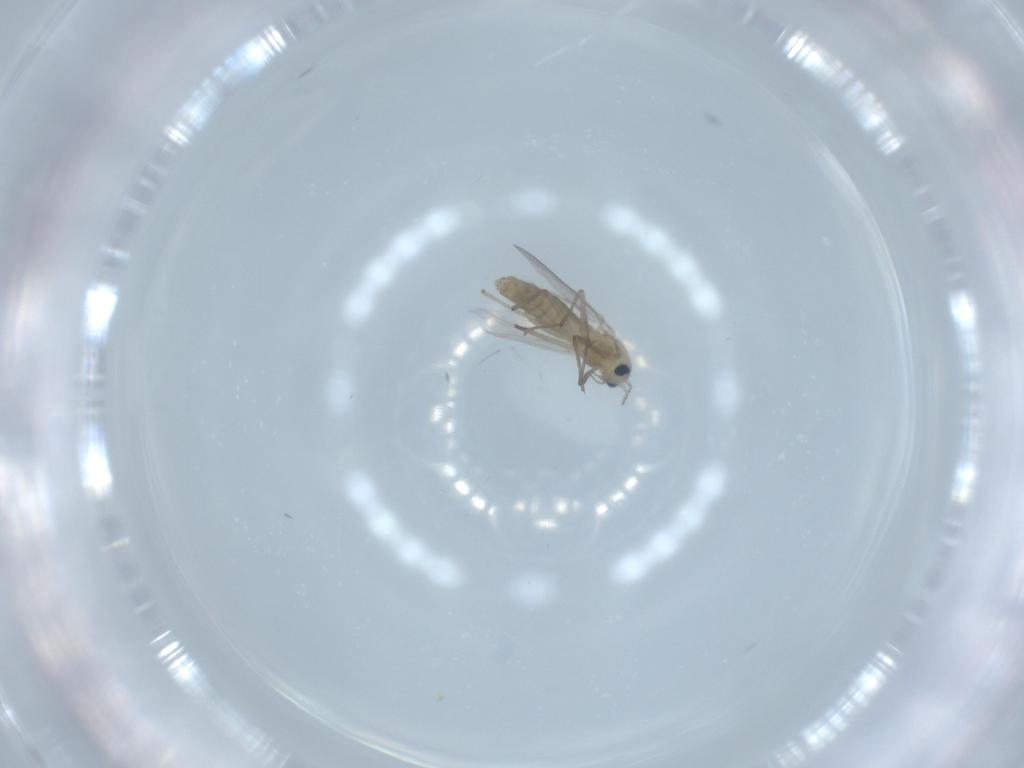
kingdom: Animalia
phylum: Arthropoda
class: Insecta
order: Diptera
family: Chironomidae
